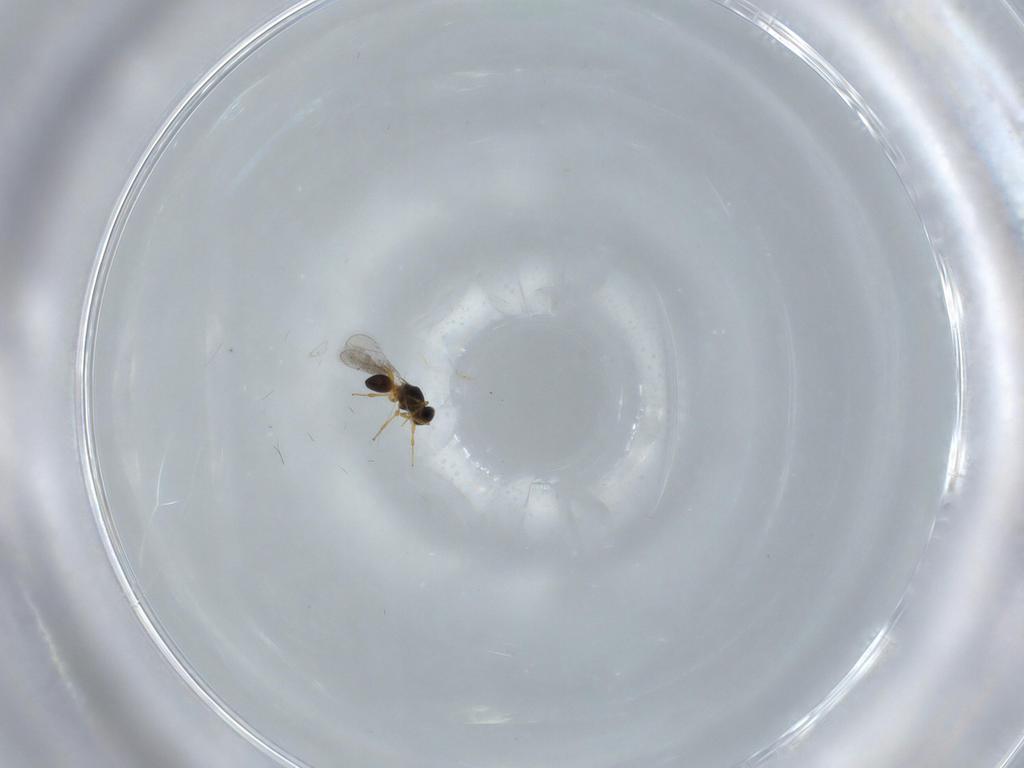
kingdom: Animalia
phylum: Arthropoda
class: Insecta
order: Hymenoptera
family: Platygastridae
